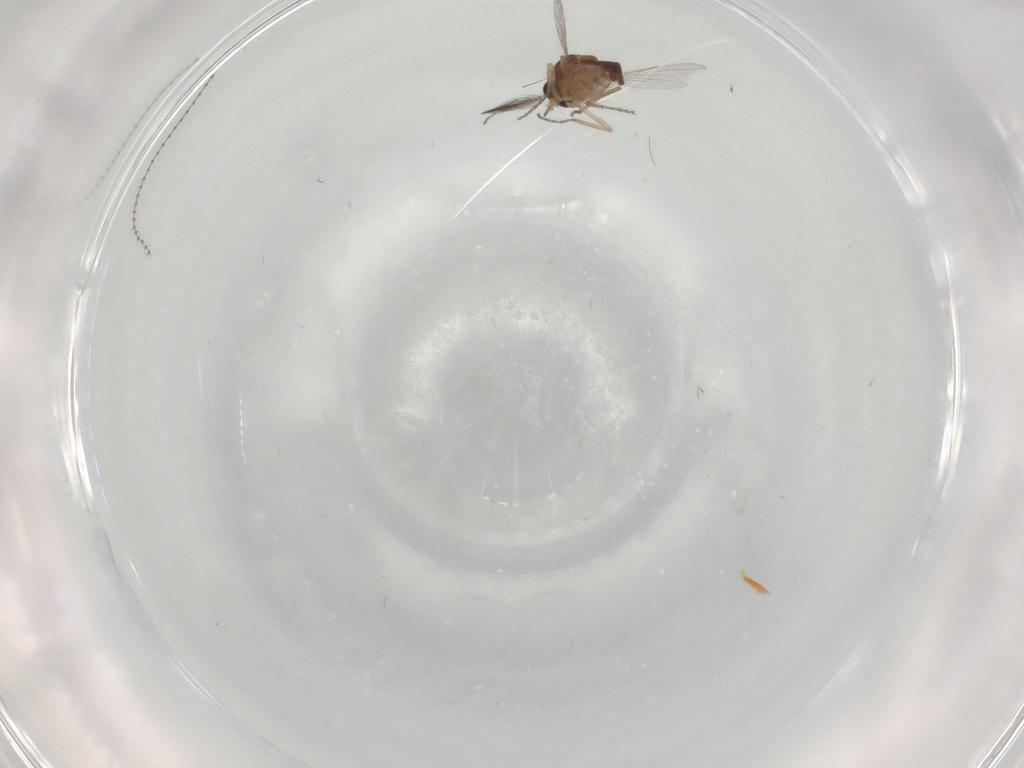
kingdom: Animalia
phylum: Arthropoda
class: Insecta
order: Diptera
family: Ceratopogonidae
